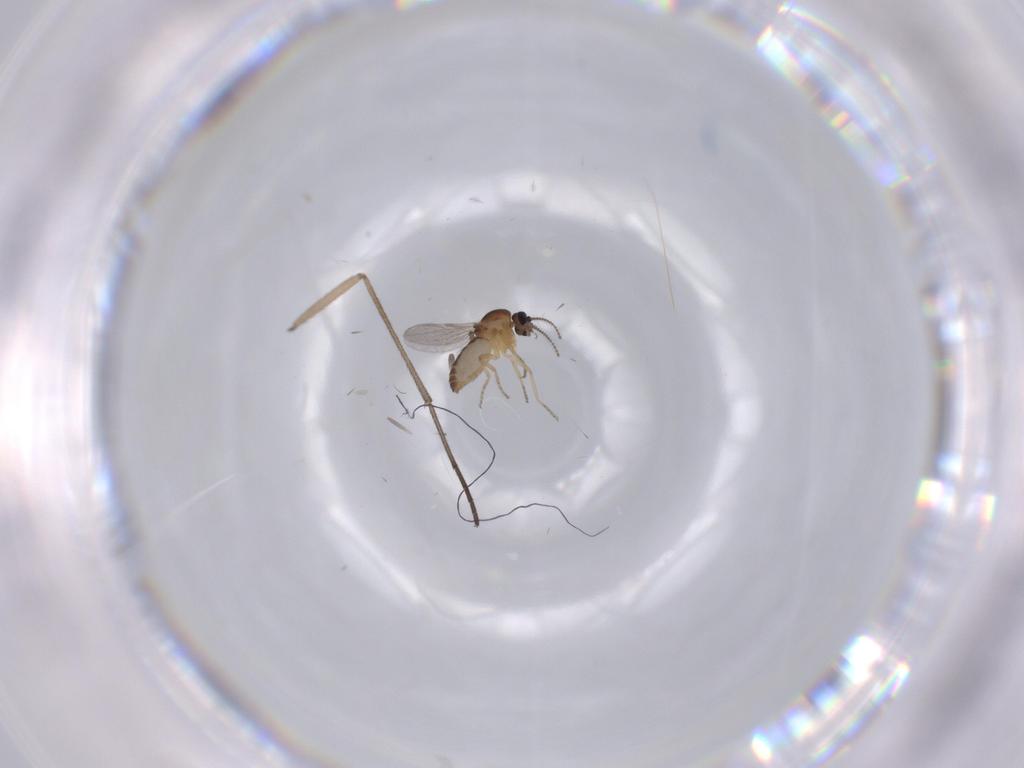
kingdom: Animalia
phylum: Arthropoda
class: Insecta
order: Diptera
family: Ceratopogonidae
